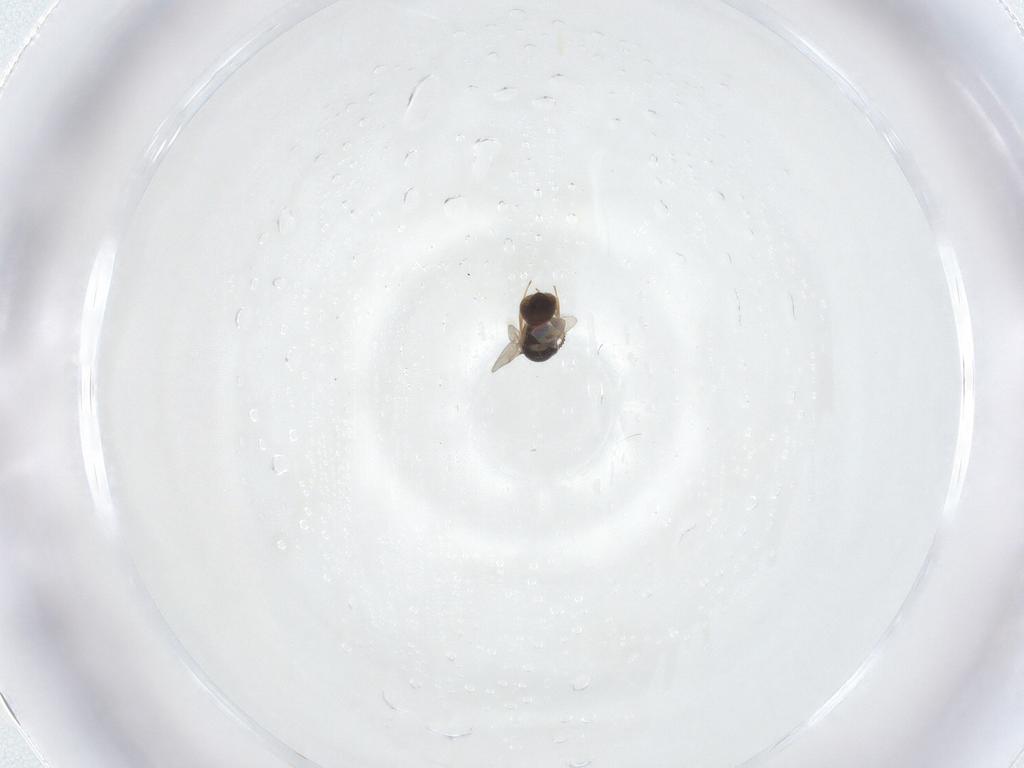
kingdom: Animalia
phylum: Arthropoda
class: Insecta
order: Hymenoptera
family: Scelionidae
